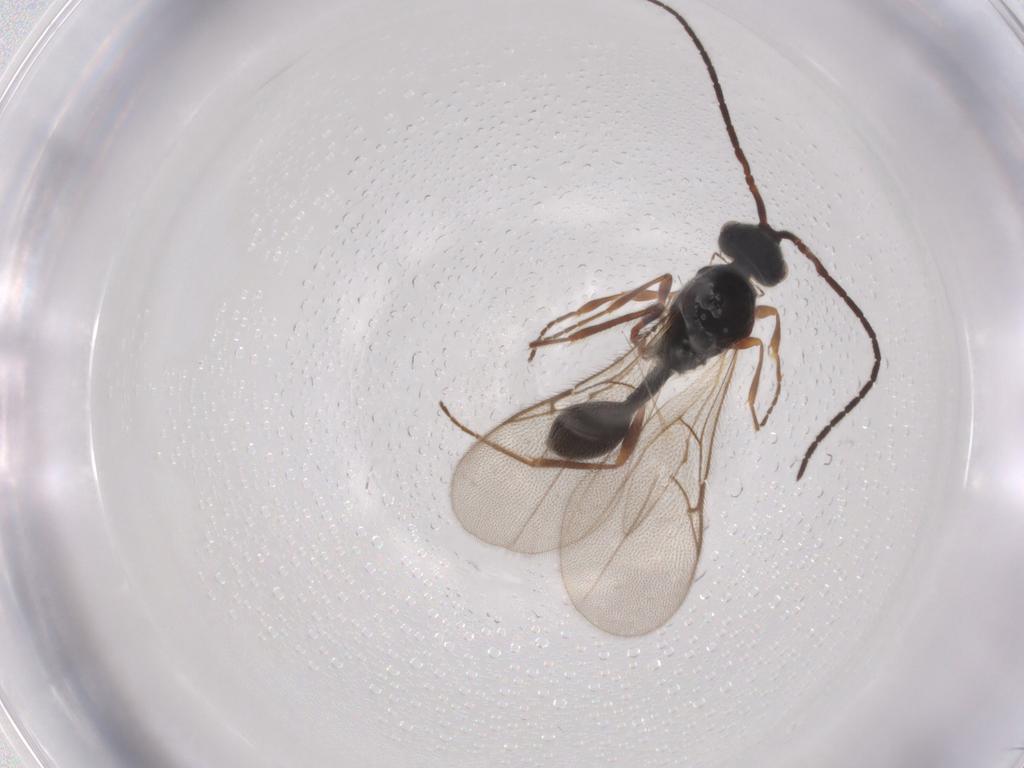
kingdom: Animalia
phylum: Arthropoda
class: Insecta
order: Hymenoptera
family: Diapriidae
